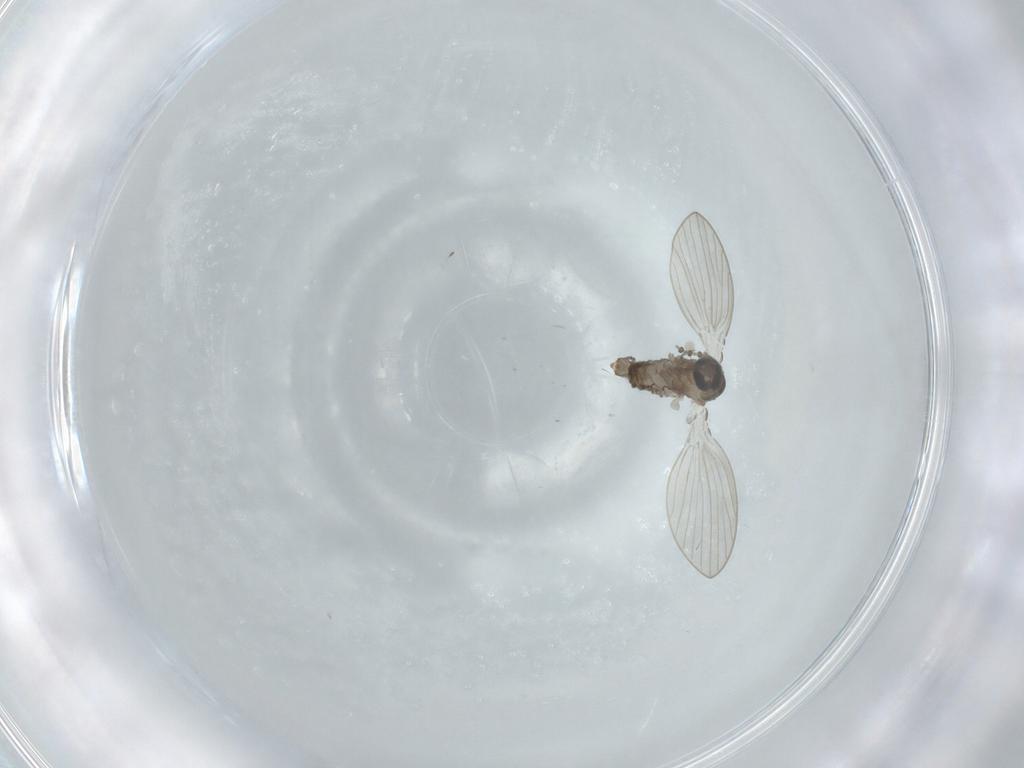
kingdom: Animalia
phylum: Arthropoda
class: Insecta
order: Diptera
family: Psychodidae
